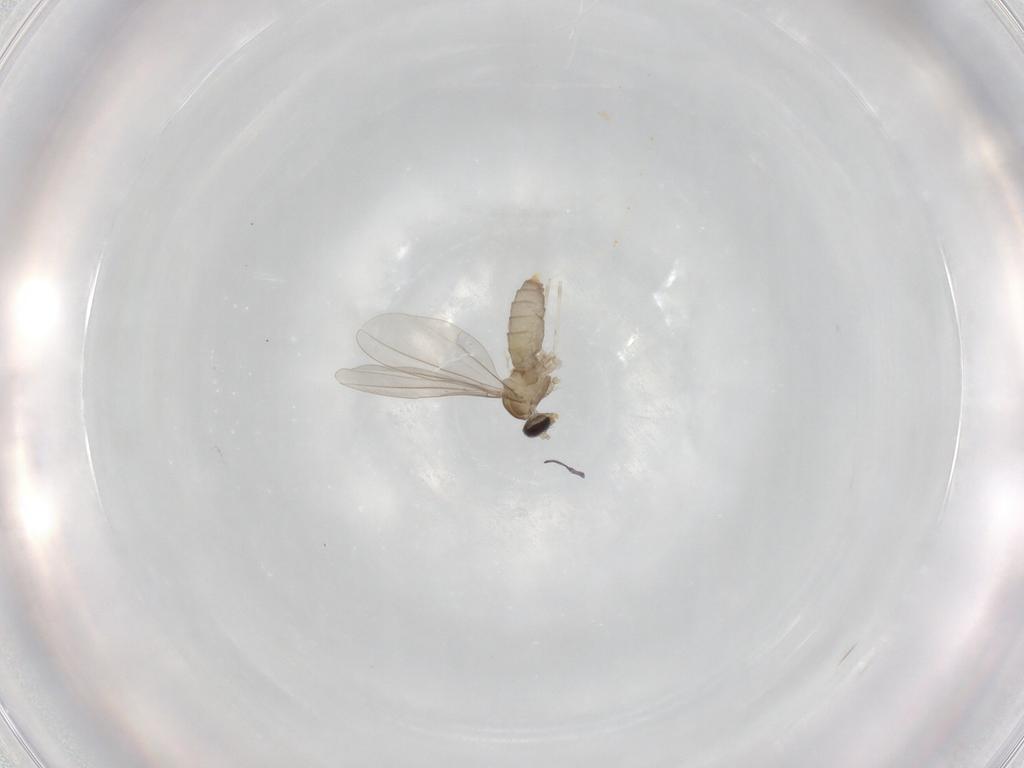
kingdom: Animalia
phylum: Arthropoda
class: Insecta
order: Diptera
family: Cecidomyiidae
